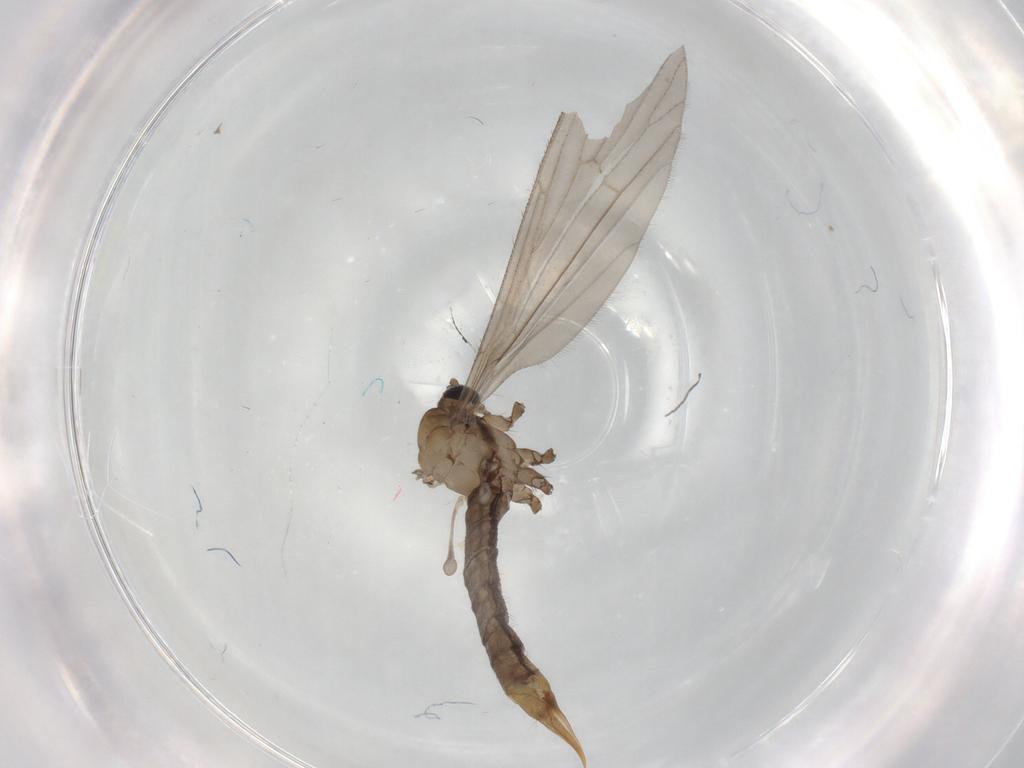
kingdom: Animalia
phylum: Arthropoda
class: Insecta
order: Diptera
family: Limoniidae
